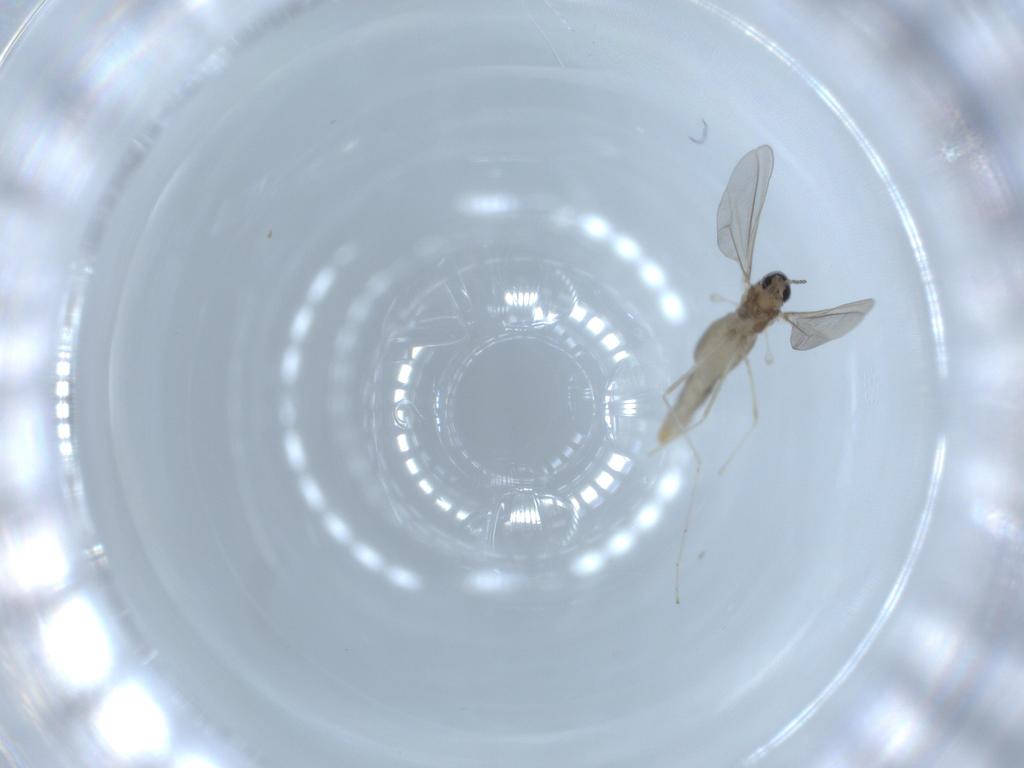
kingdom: Animalia
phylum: Arthropoda
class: Insecta
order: Diptera
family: Cecidomyiidae
